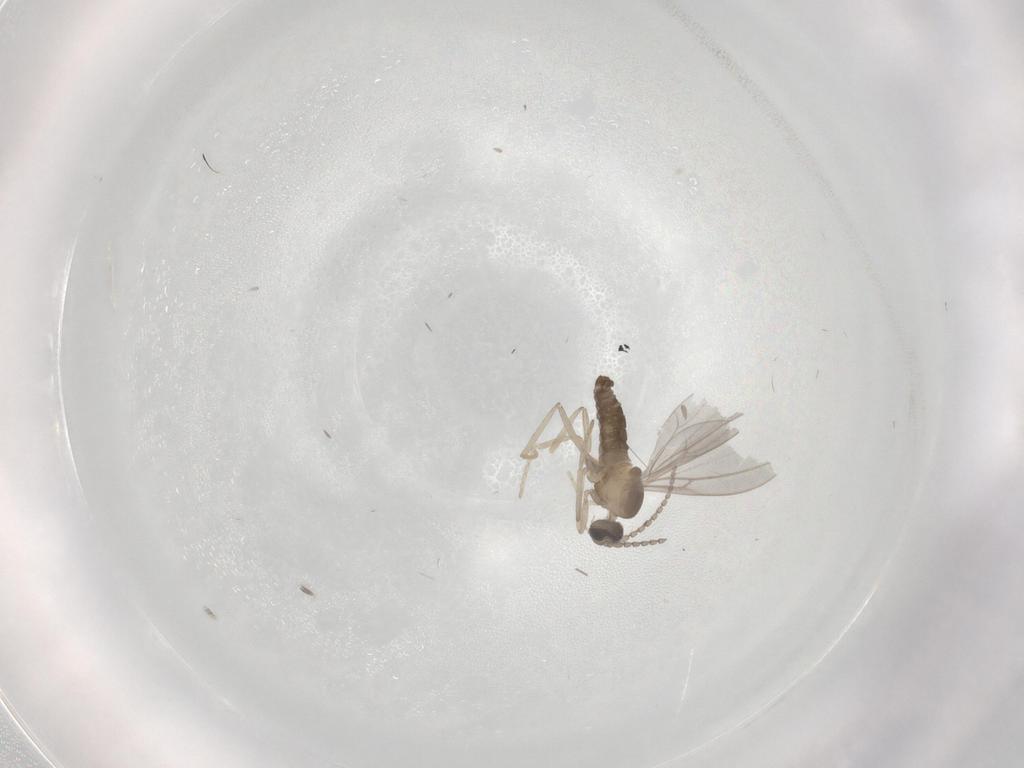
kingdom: Animalia
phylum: Arthropoda
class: Insecta
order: Diptera
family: Cecidomyiidae
